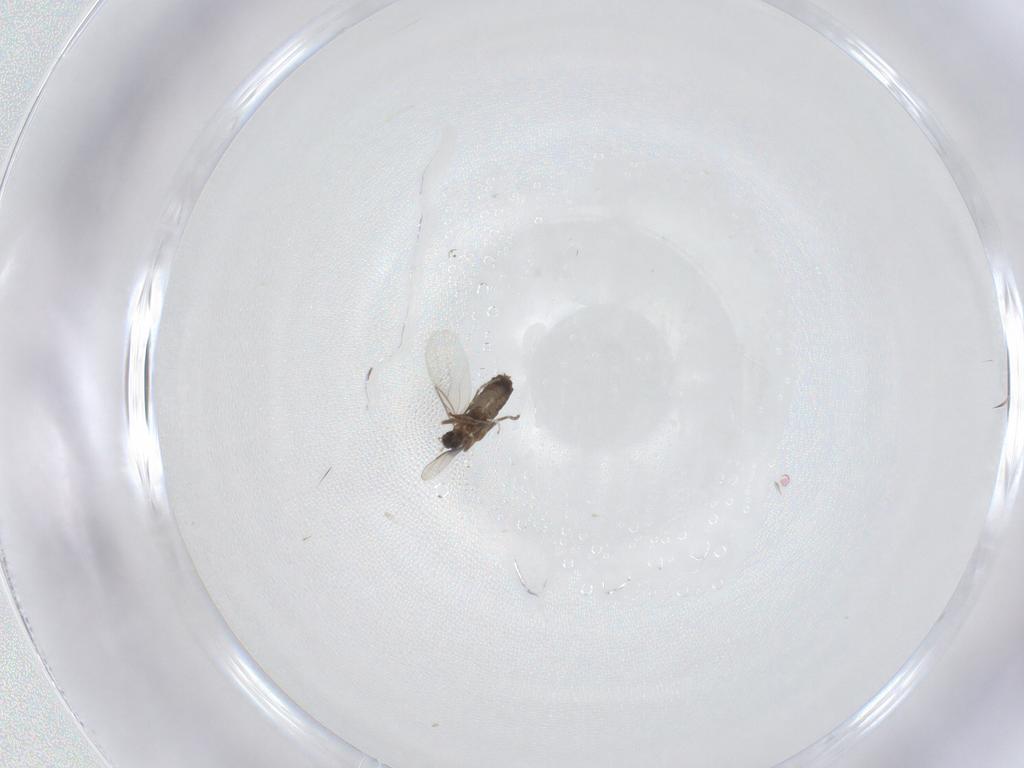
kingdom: Animalia
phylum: Arthropoda
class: Insecta
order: Diptera
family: Phoridae
